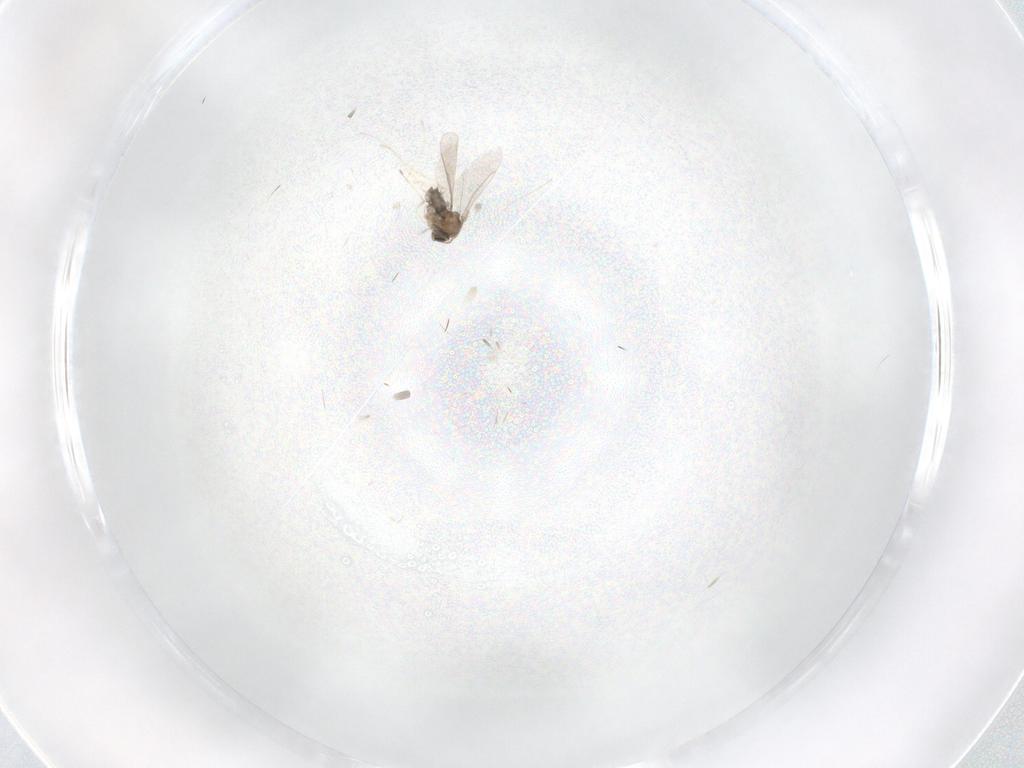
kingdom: Animalia
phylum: Arthropoda
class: Insecta
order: Diptera
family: Cecidomyiidae
